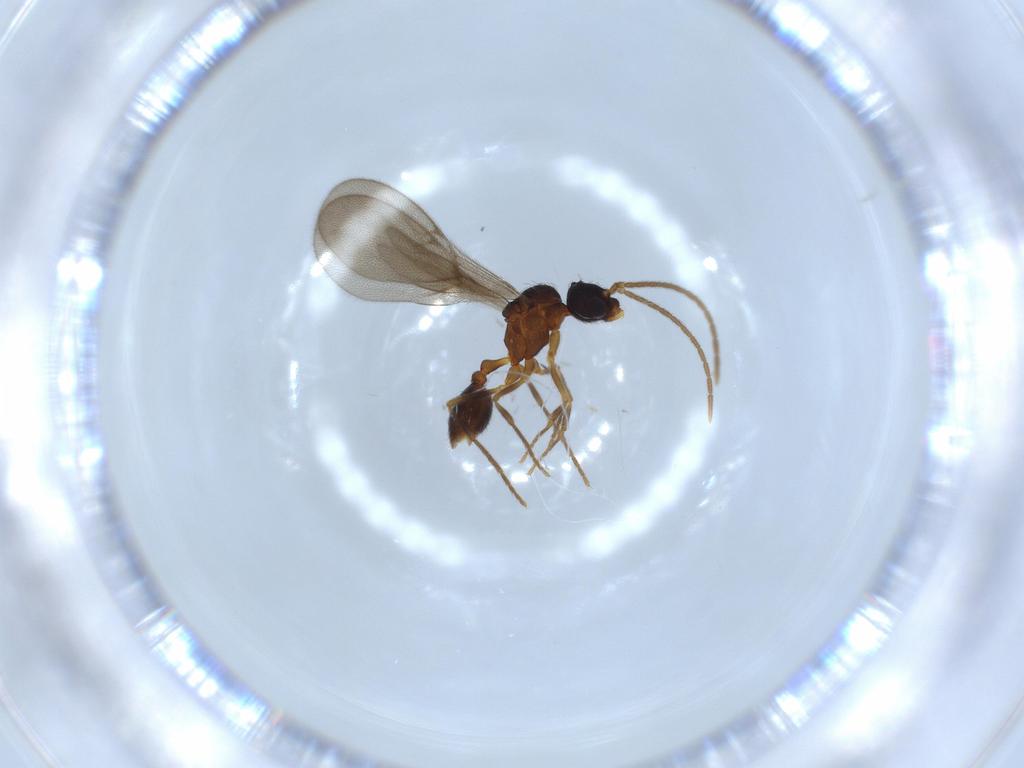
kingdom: Animalia
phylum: Arthropoda
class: Insecta
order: Hymenoptera
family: Formicidae
